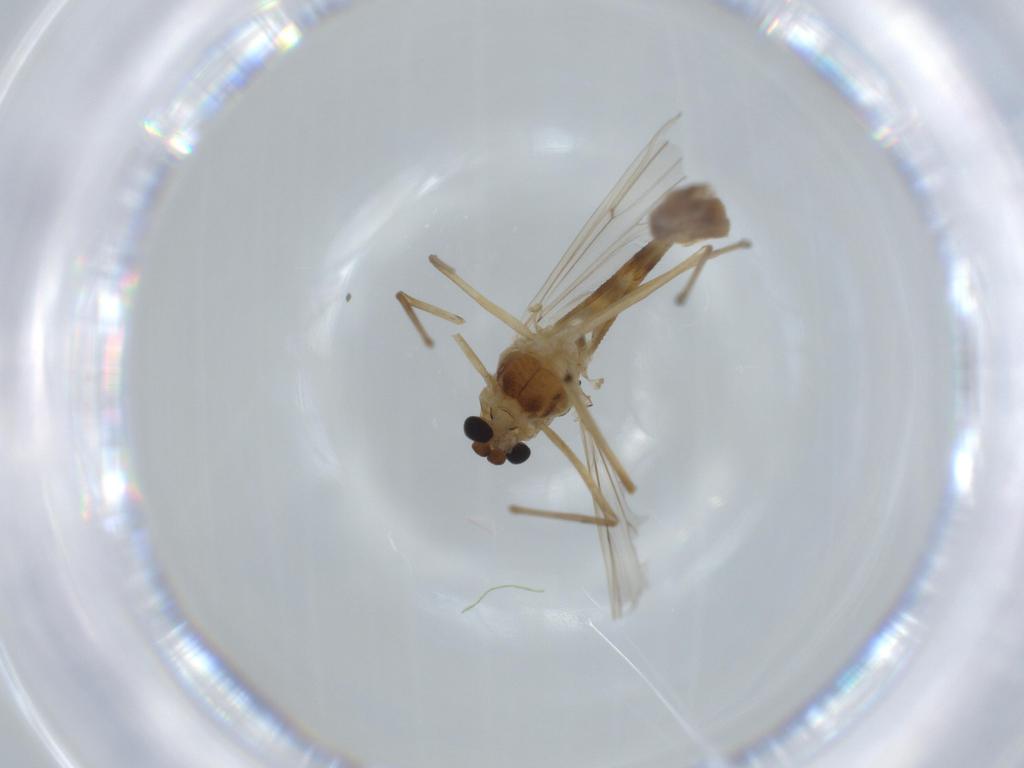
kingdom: Animalia
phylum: Arthropoda
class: Insecta
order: Diptera
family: Chironomidae
